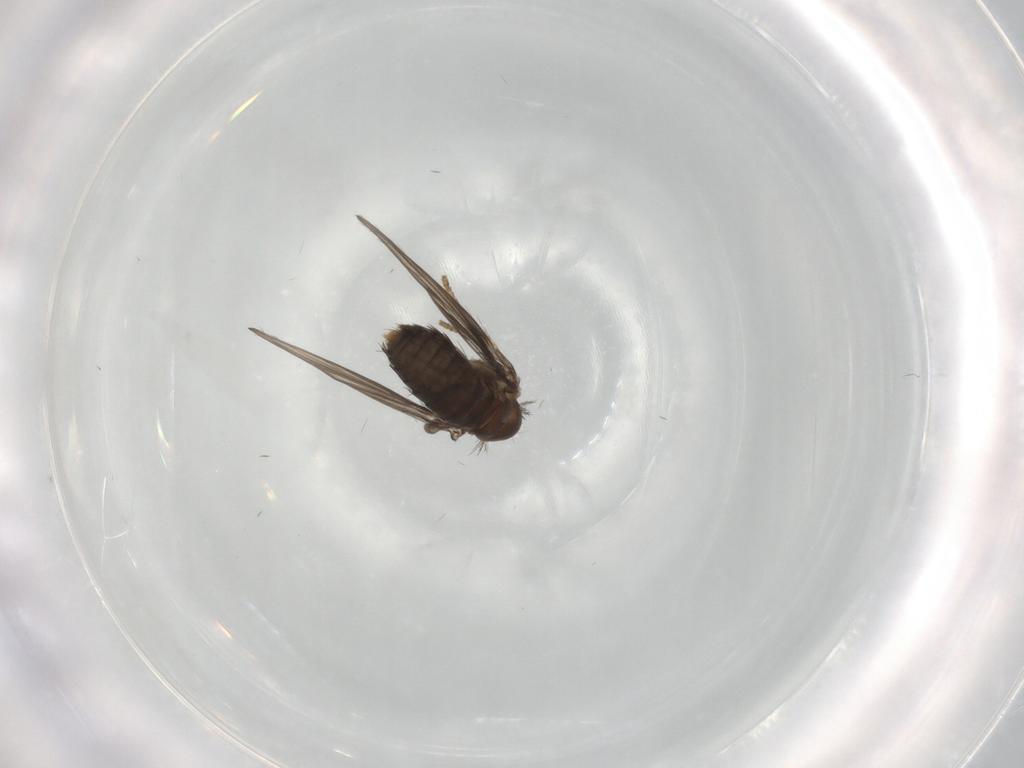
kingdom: Animalia
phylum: Arthropoda
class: Insecta
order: Diptera
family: Psychodidae
